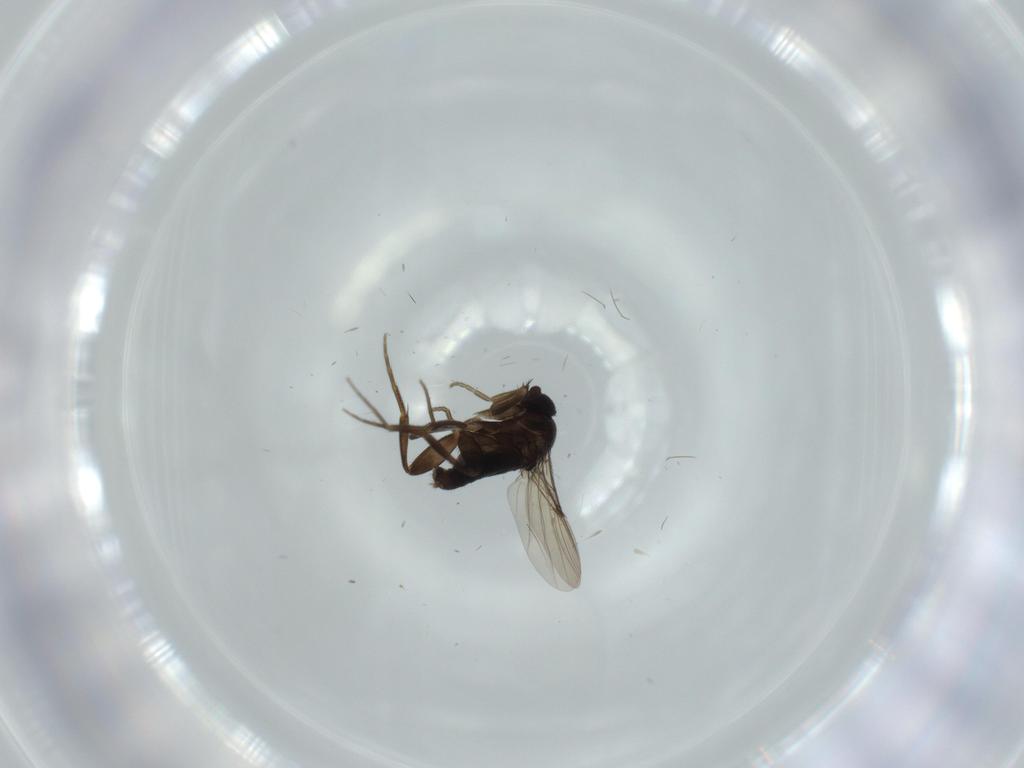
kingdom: Animalia
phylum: Arthropoda
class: Insecta
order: Diptera
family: Phoridae
